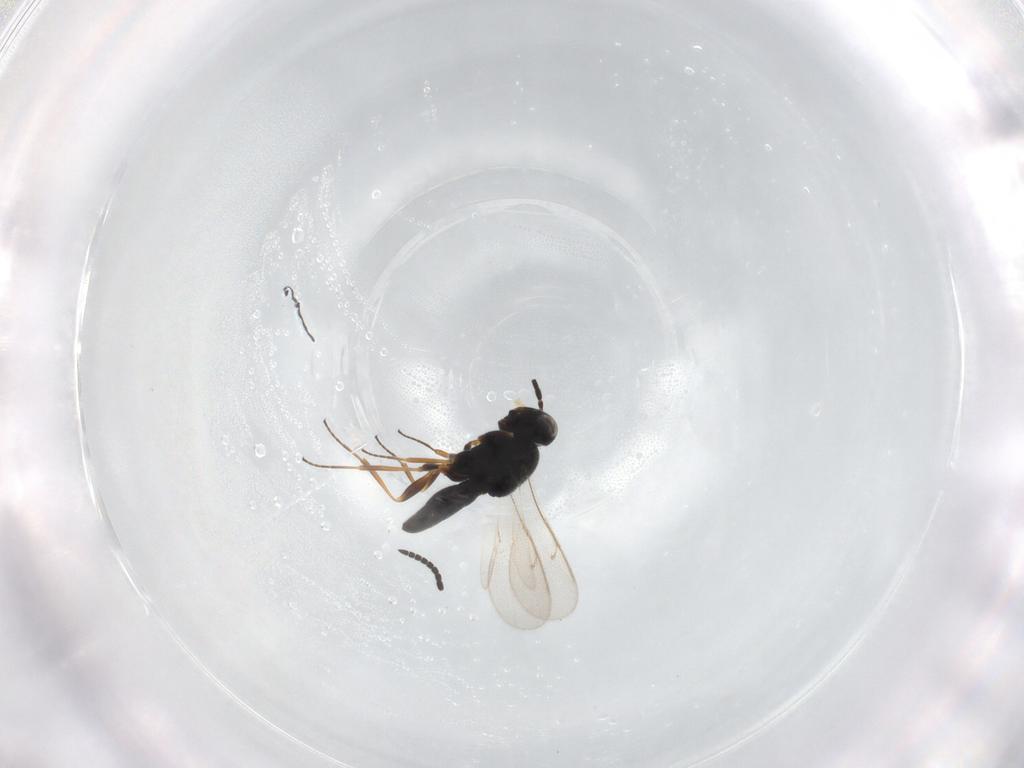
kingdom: Animalia
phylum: Arthropoda
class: Insecta
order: Hymenoptera
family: Scelionidae
